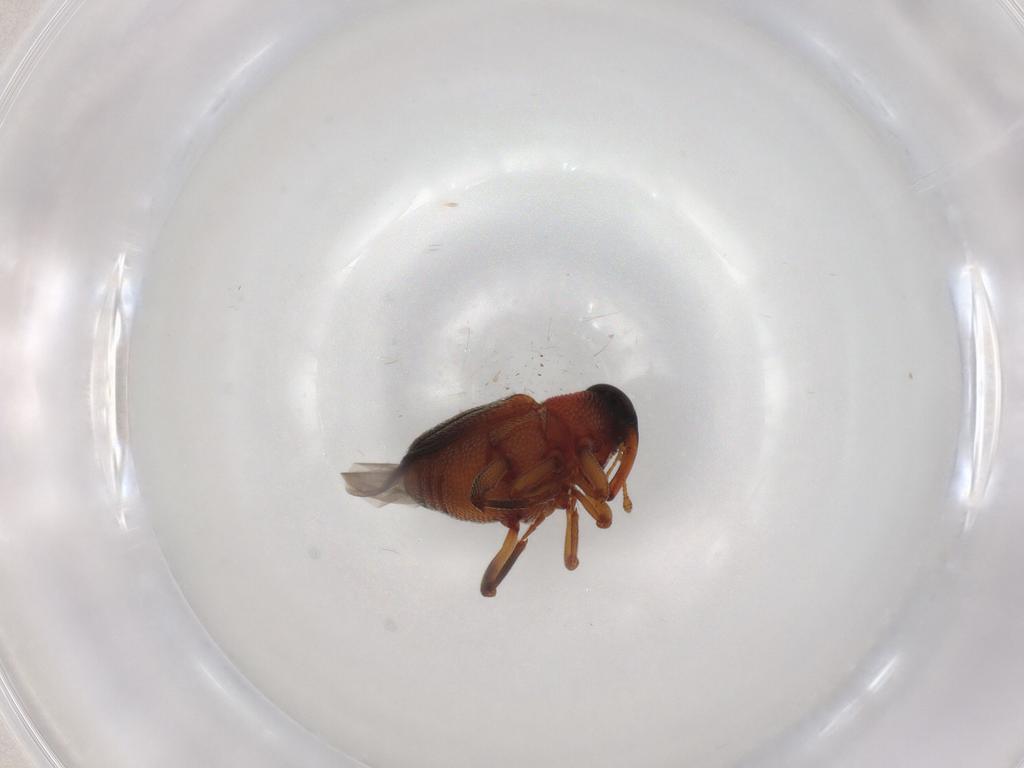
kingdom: Animalia
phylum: Arthropoda
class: Insecta
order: Coleoptera
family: Curculionidae
